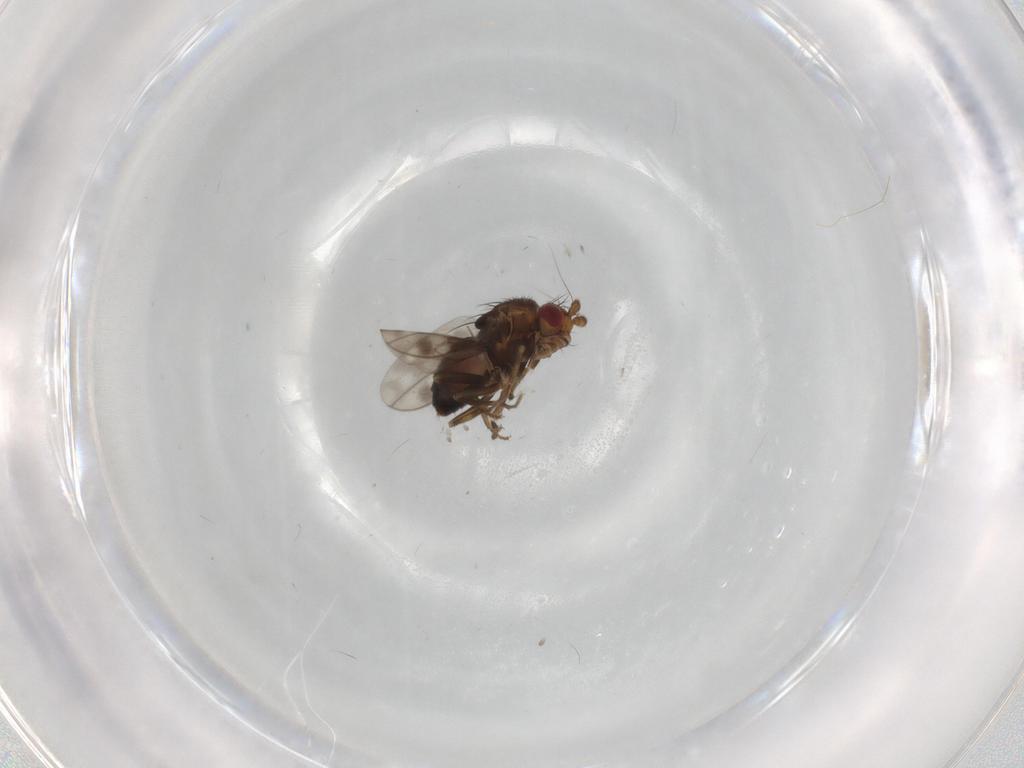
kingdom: Animalia
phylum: Arthropoda
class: Insecta
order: Diptera
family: Sphaeroceridae
